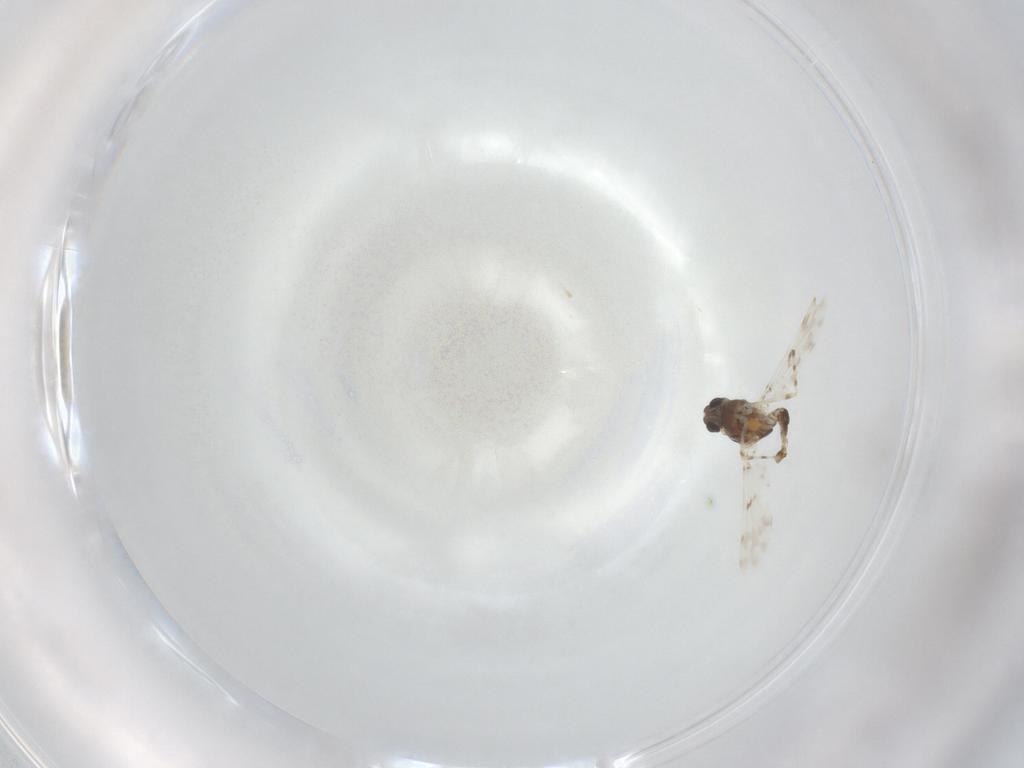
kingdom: Animalia
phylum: Arthropoda
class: Insecta
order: Diptera
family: Chironomidae
